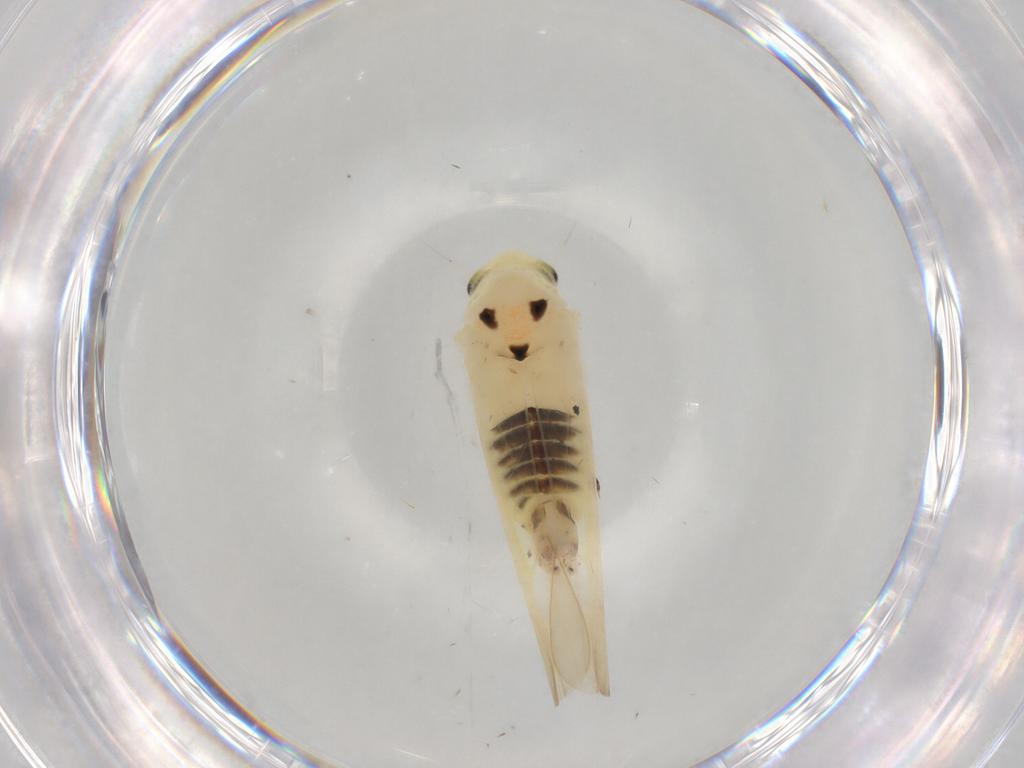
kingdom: Animalia
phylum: Arthropoda
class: Insecta
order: Hemiptera
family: Cicadellidae
